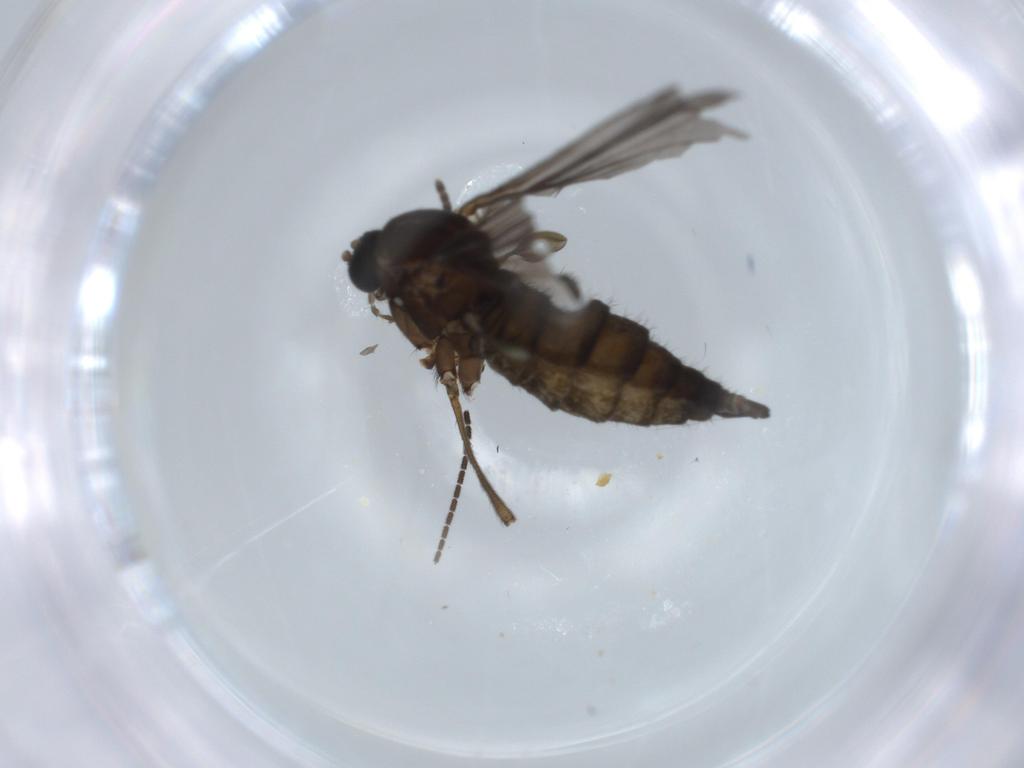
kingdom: Animalia
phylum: Arthropoda
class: Insecta
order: Diptera
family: Sciaridae
